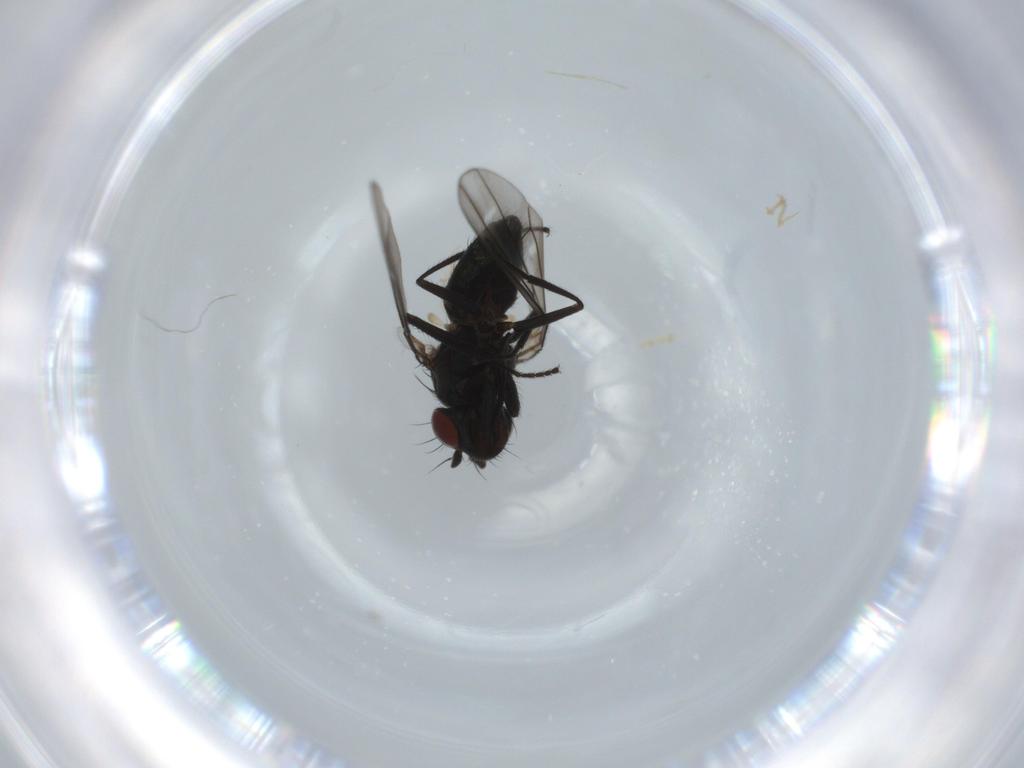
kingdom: Animalia
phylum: Arthropoda
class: Insecta
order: Diptera
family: Ephydridae
